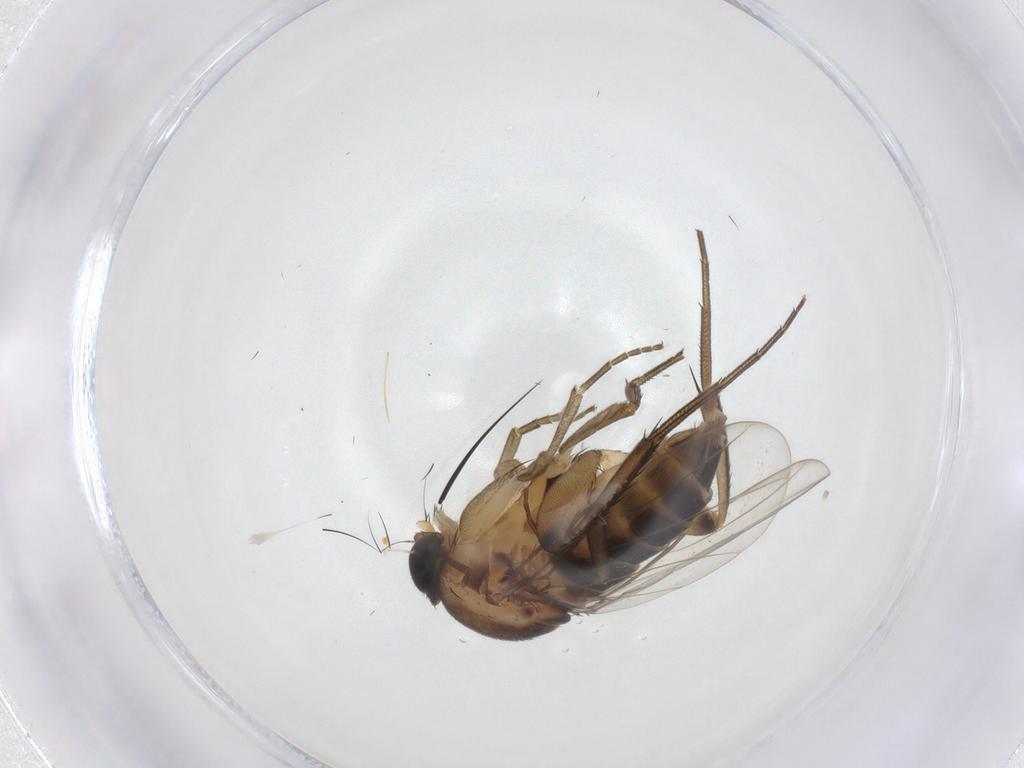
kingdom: Animalia
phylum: Arthropoda
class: Insecta
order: Diptera
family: Phoridae
